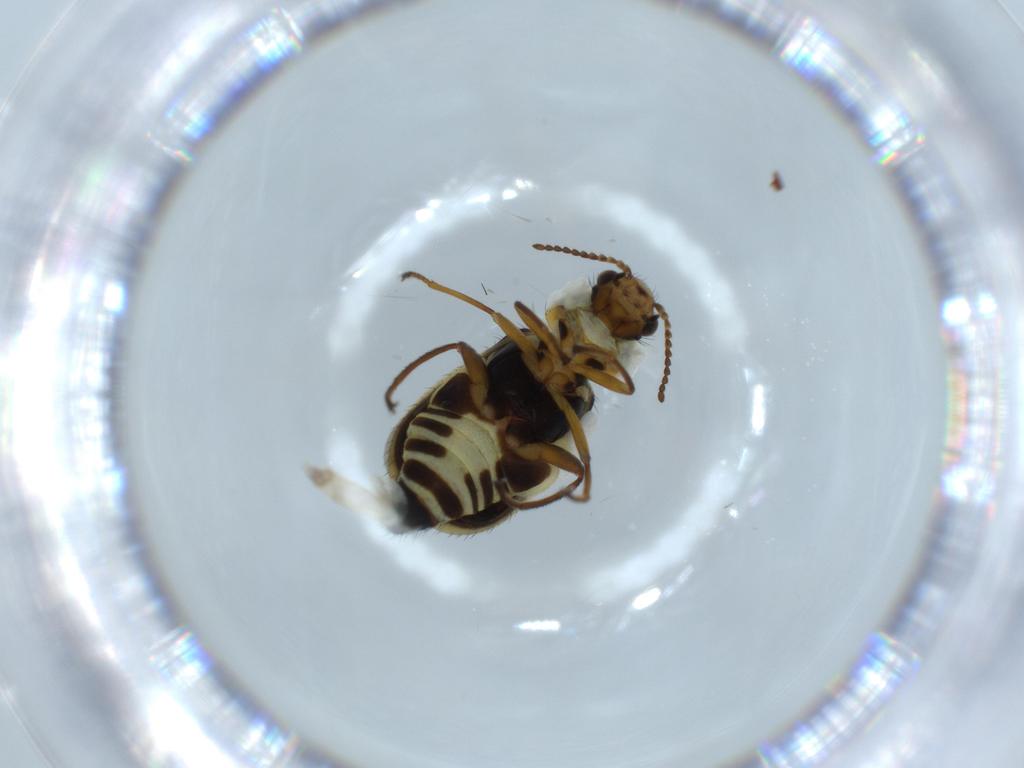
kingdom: Animalia
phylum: Arthropoda
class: Insecta
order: Coleoptera
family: Melyridae
